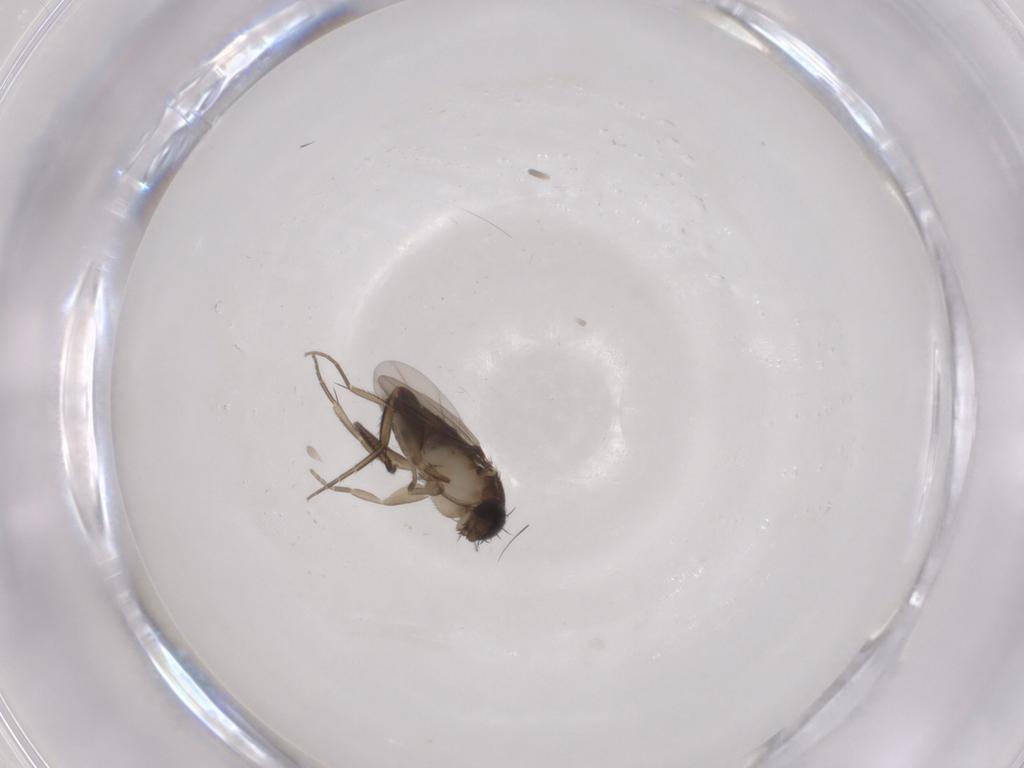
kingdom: Animalia
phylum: Arthropoda
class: Insecta
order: Diptera
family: Phoridae
